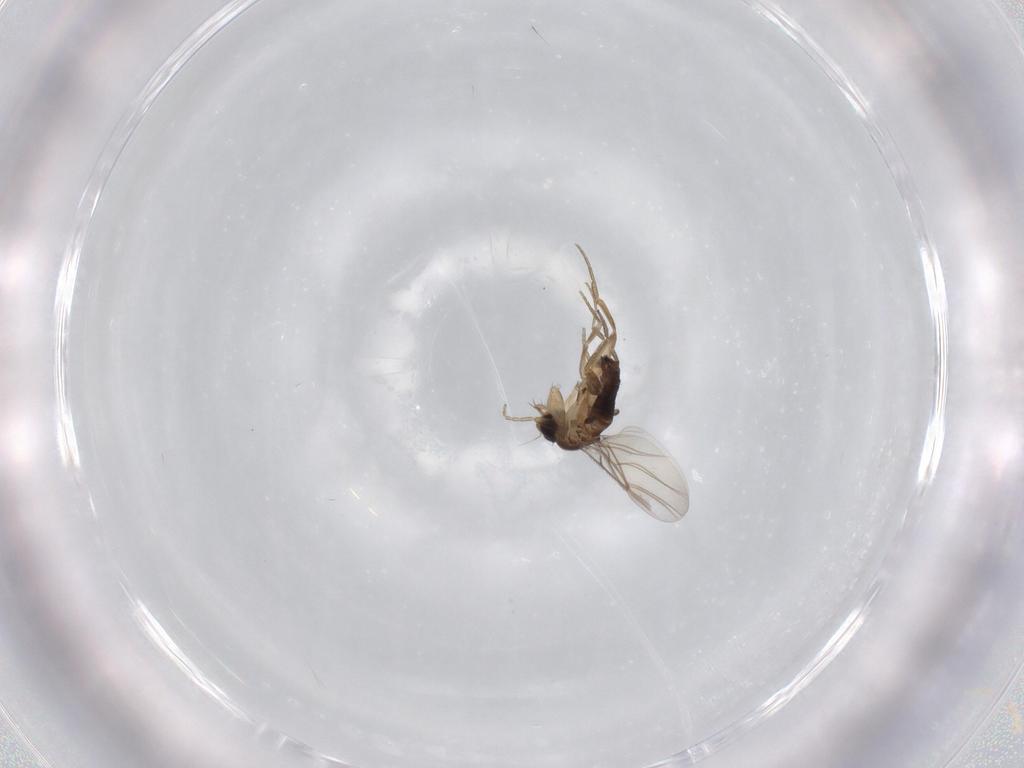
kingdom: Animalia
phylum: Arthropoda
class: Insecta
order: Diptera
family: Phoridae
